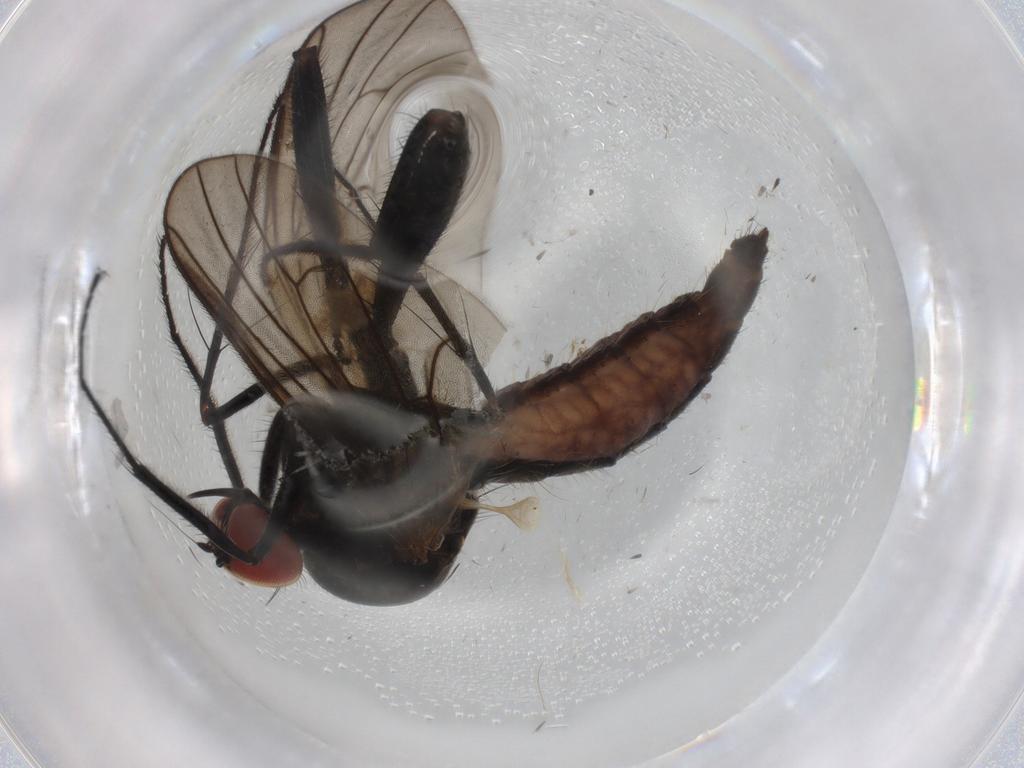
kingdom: Animalia
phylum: Arthropoda
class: Insecta
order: Diptera
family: Hybotidae
